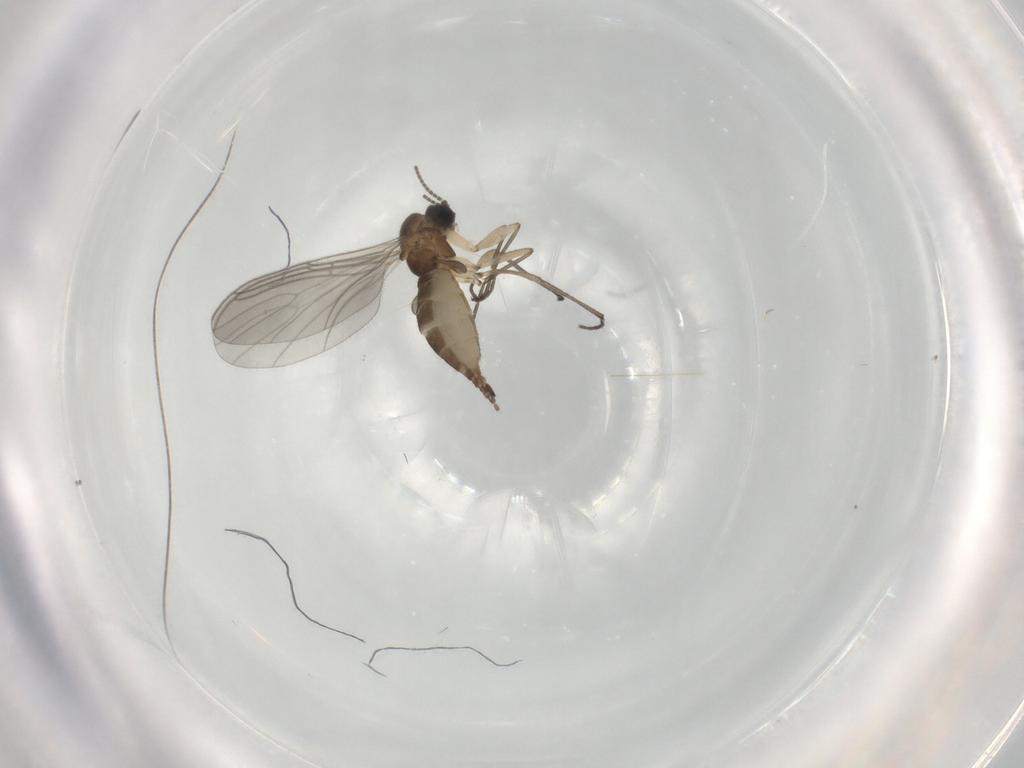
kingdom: Animalia
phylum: Arthropoda
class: Insecta
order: Diptera
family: Sciaridae
